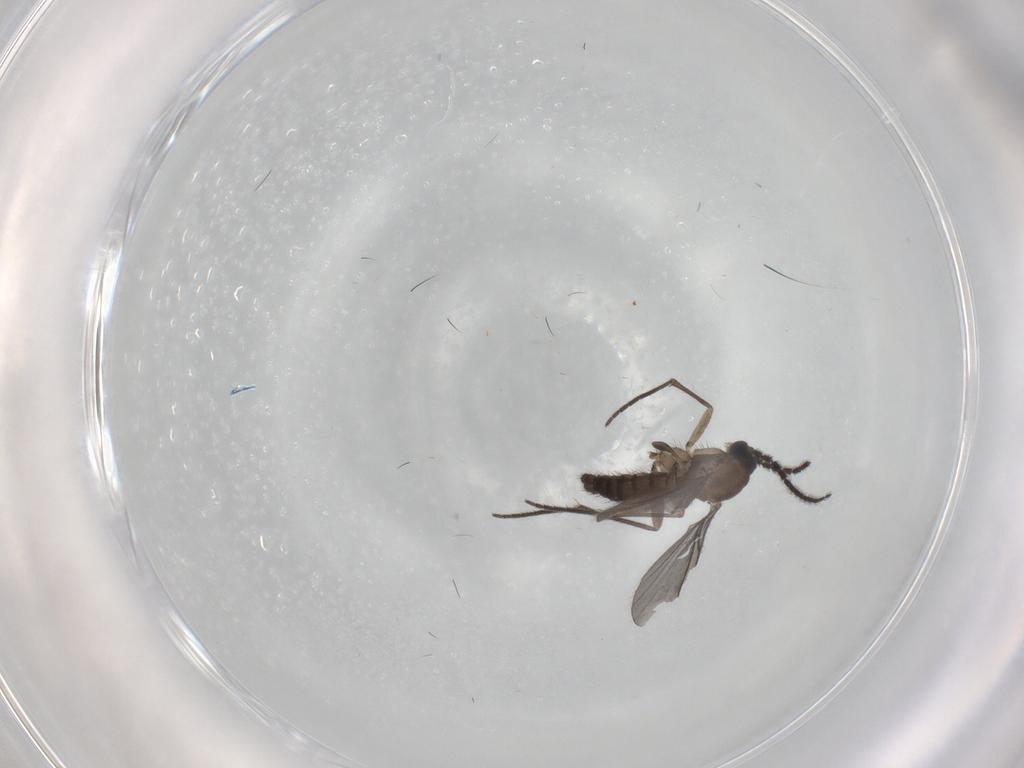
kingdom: Animalia
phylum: Arthropoda
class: Insecta
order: Diptera
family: Sciaridae
